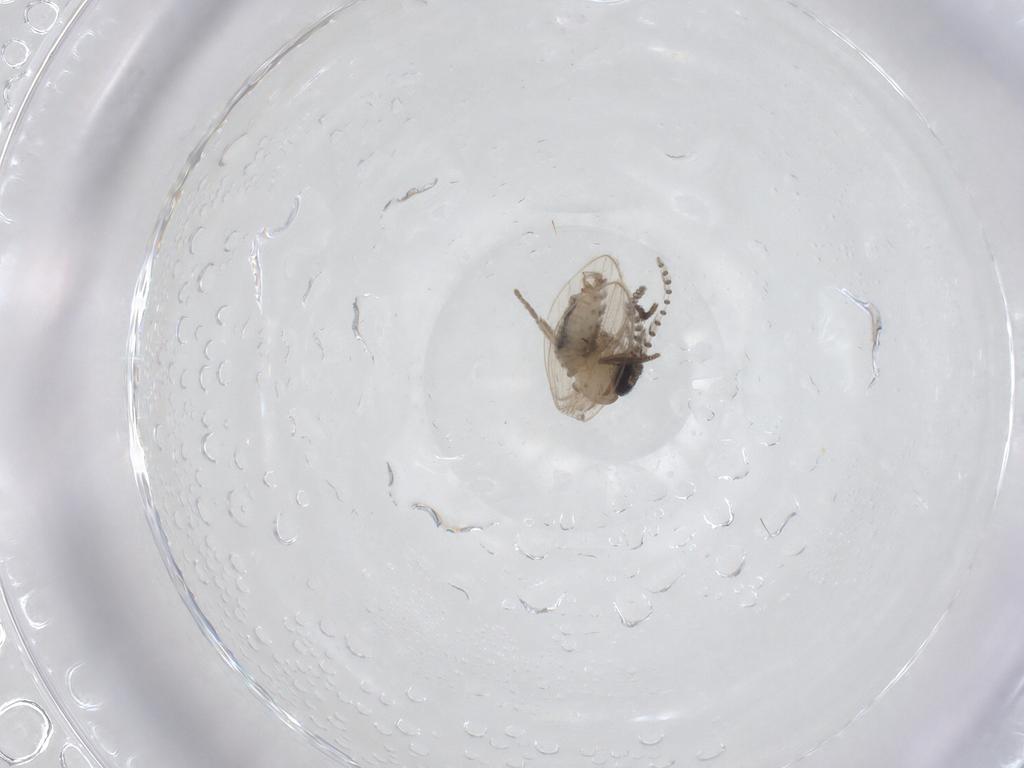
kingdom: Animalia
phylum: Arthropoda
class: Insecta
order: Diptera
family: Psychodidae
